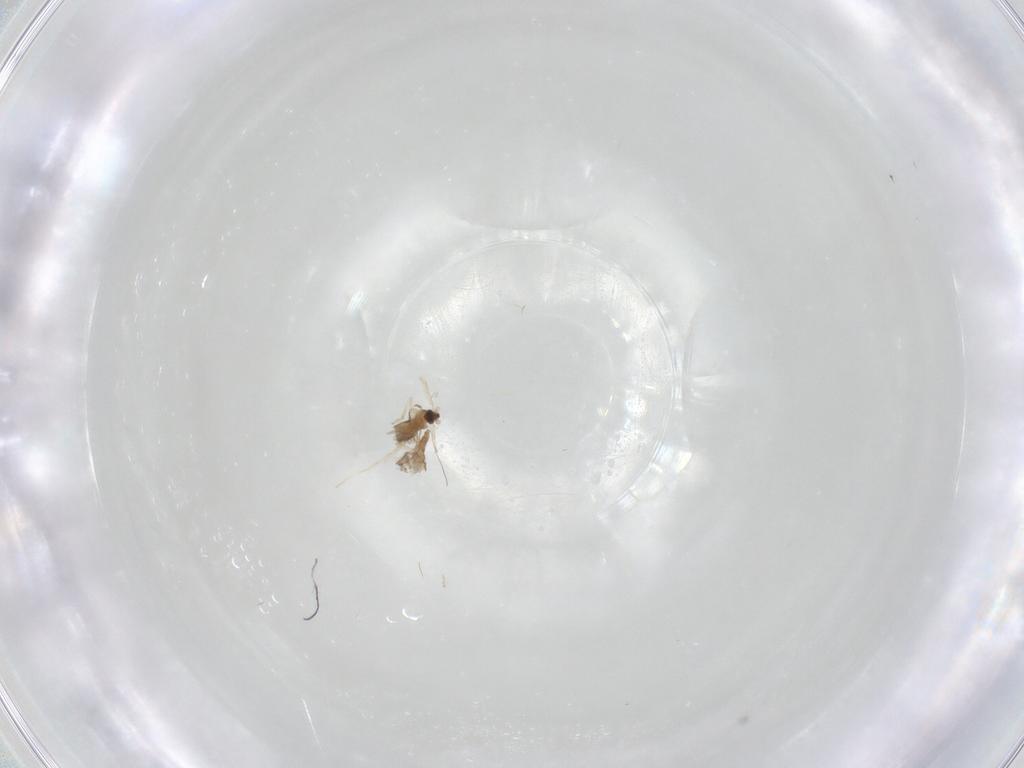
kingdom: Animalia
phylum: Arthropoda
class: Insecta
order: Diptera
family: Cecidomyiidae
